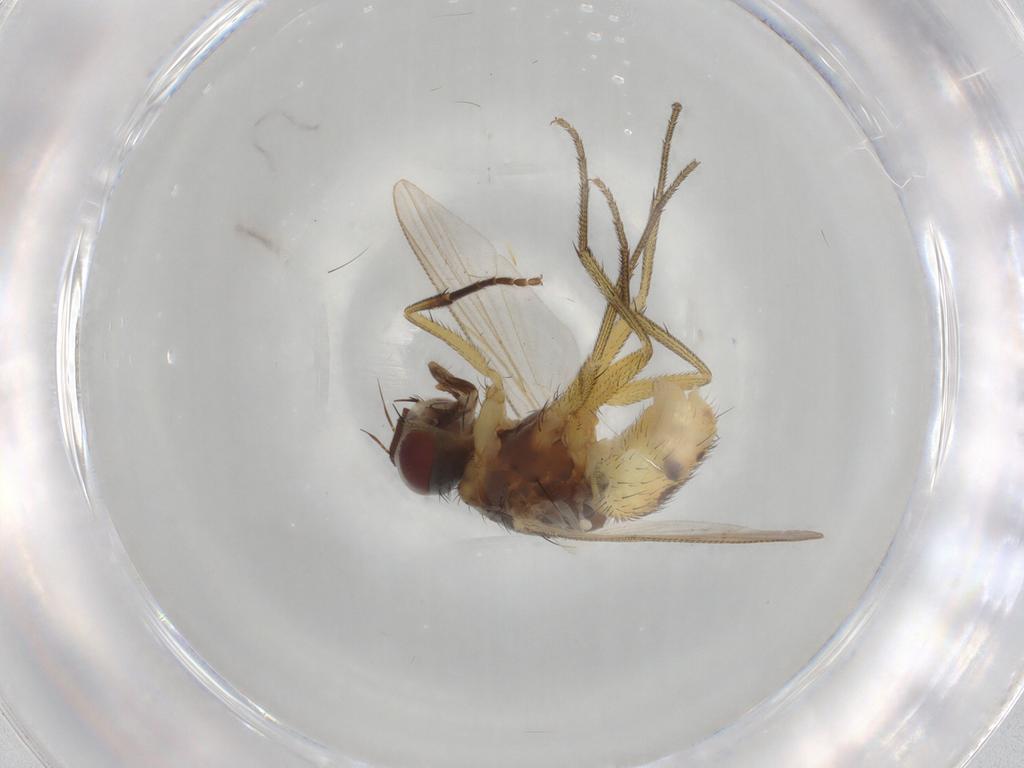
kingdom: Animalia
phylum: Arthropoda
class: Insecta
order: Diptera
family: Muscidae
